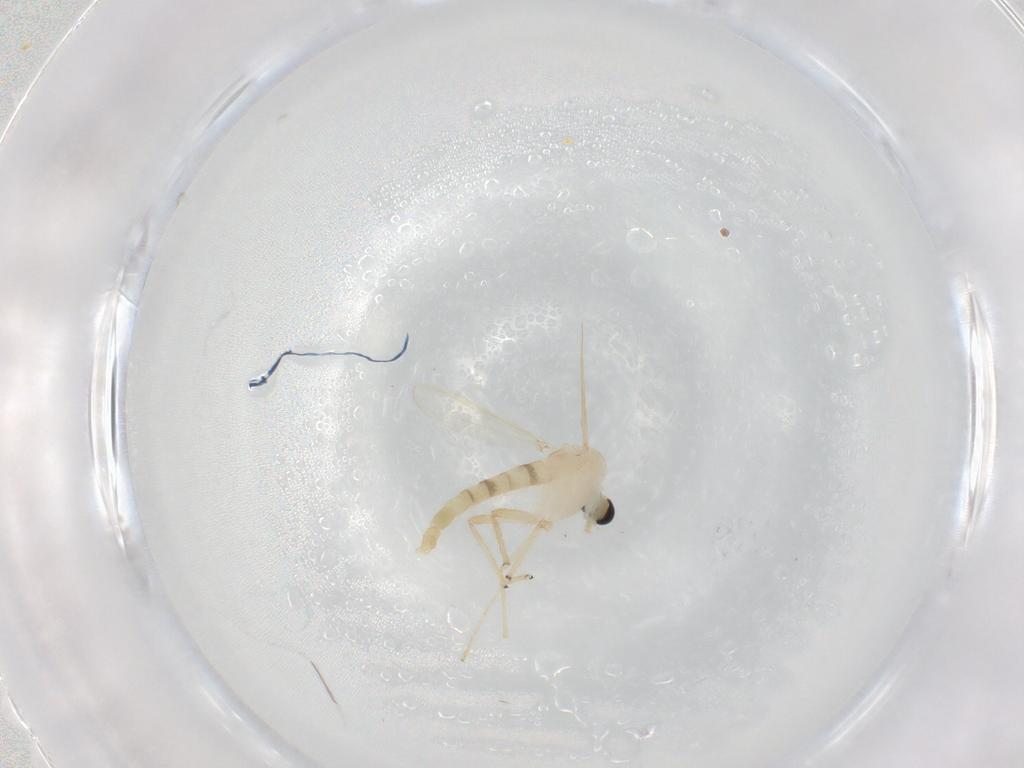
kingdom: Animalia
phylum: Arthropoda
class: Insecta
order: Diptera
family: Chironomidae
